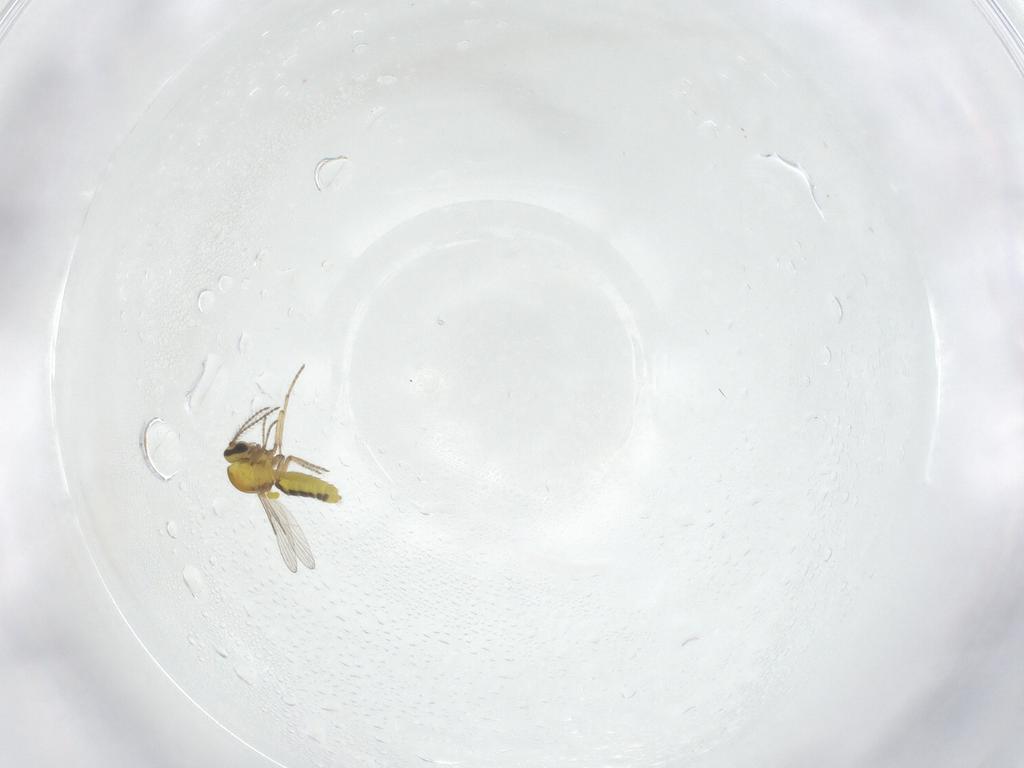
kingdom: Animalia
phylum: Arthropoda
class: Insecta
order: Diptera
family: Ceratopogonidae
